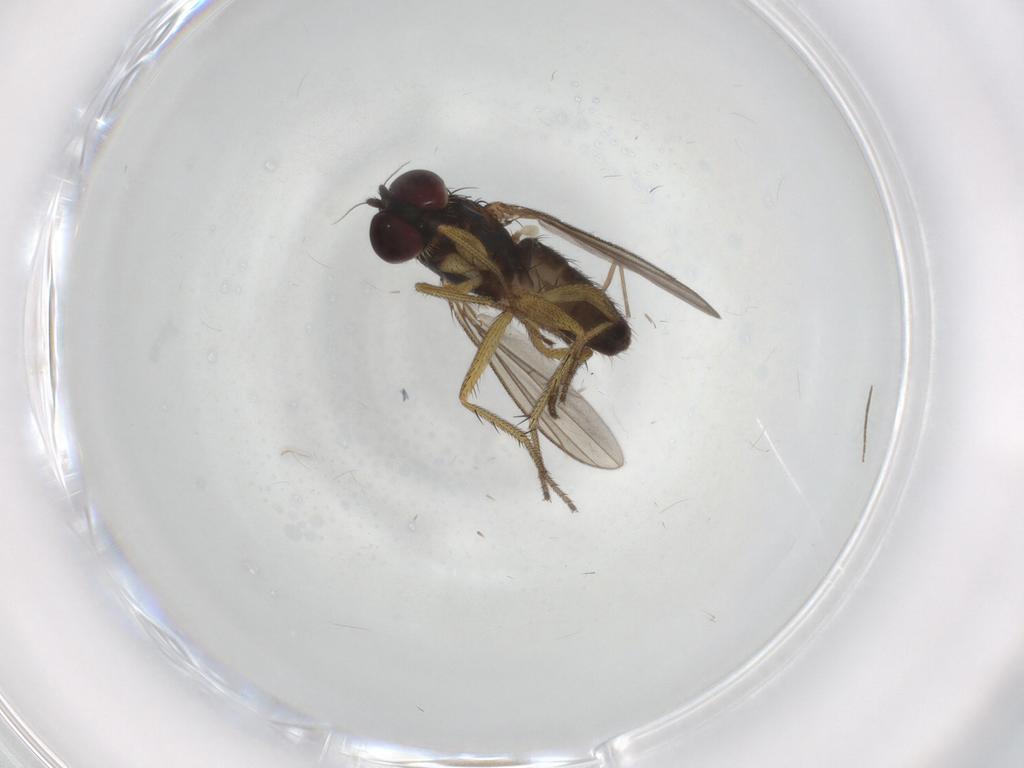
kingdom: Animalia
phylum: Arthropoda
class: Insecta
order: Diptera
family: Chironomidae
